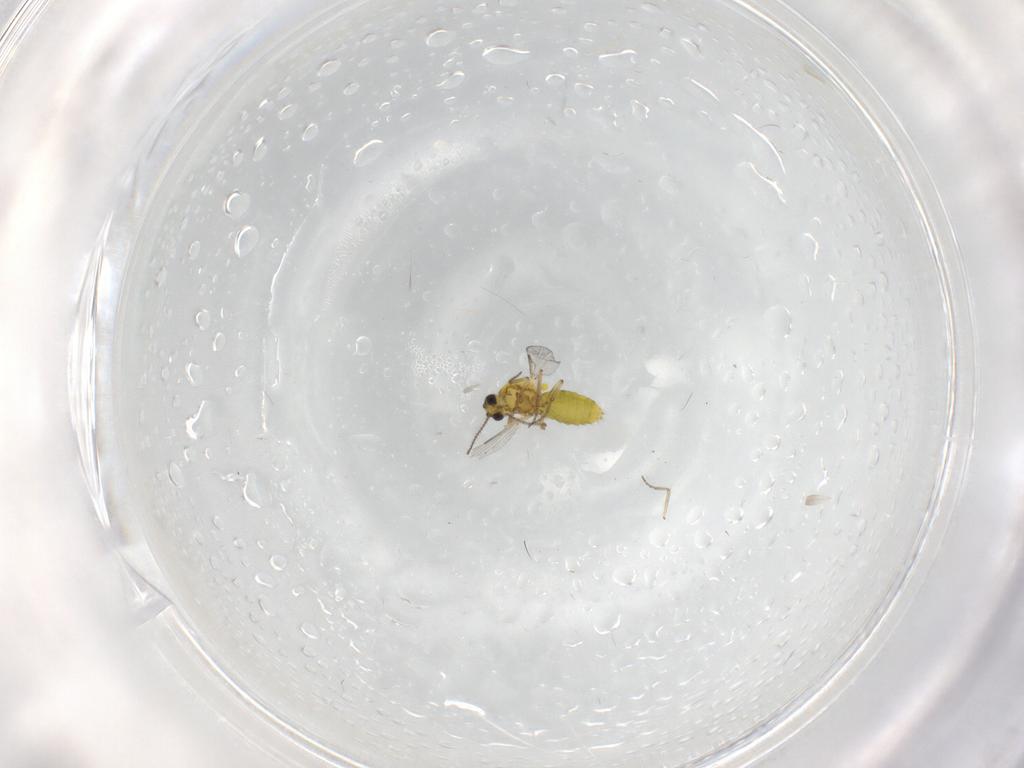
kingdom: Animalia
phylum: Arthropoda
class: Insecta
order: Diptera
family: Ceratopogonidae
